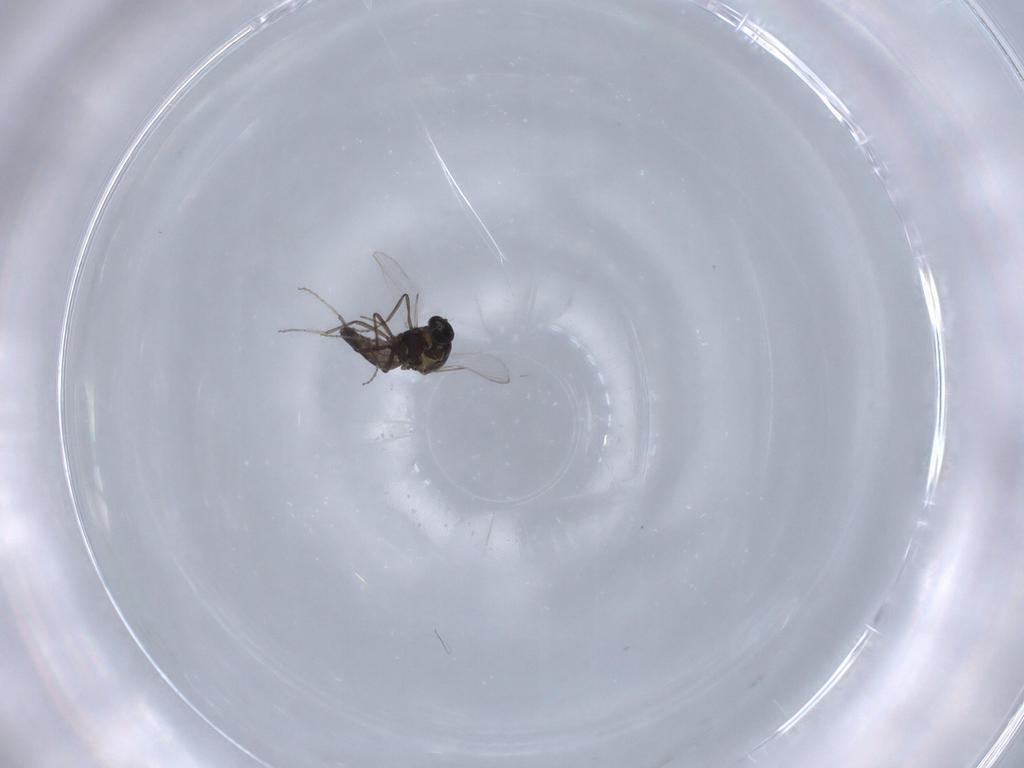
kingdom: Animalia
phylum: Arthropoda
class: Insecta
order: Diptera
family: Ceratopogonidae
